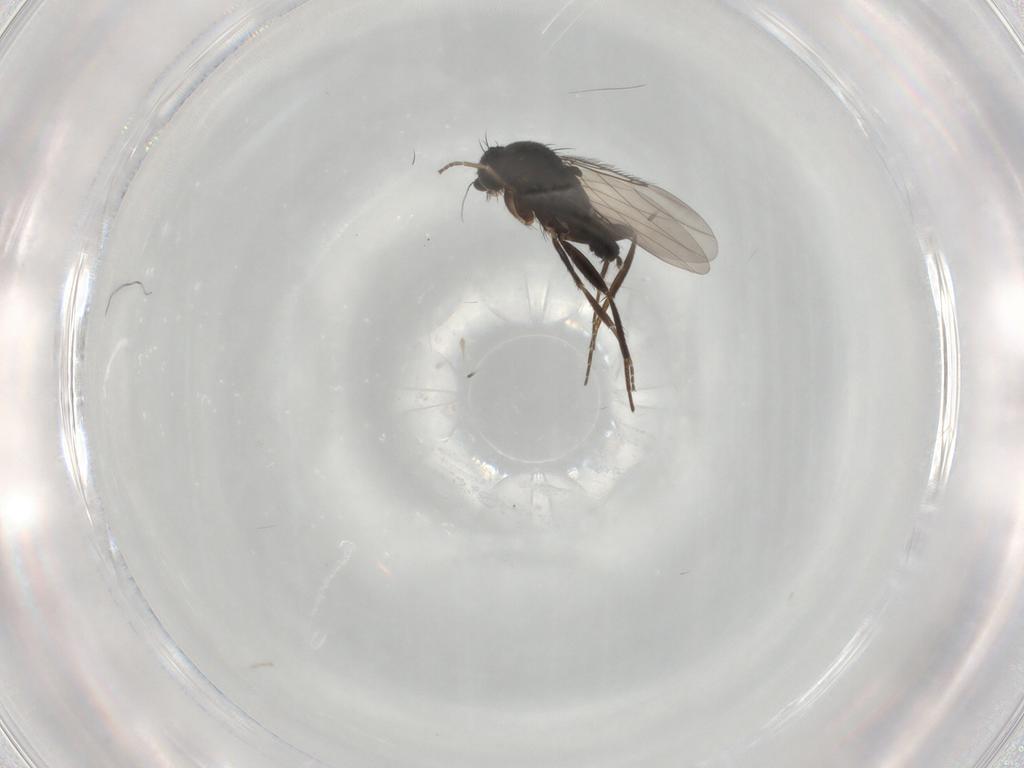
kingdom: Animalia
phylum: Arthropoda
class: Insecta
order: Diptera
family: Phoridae
